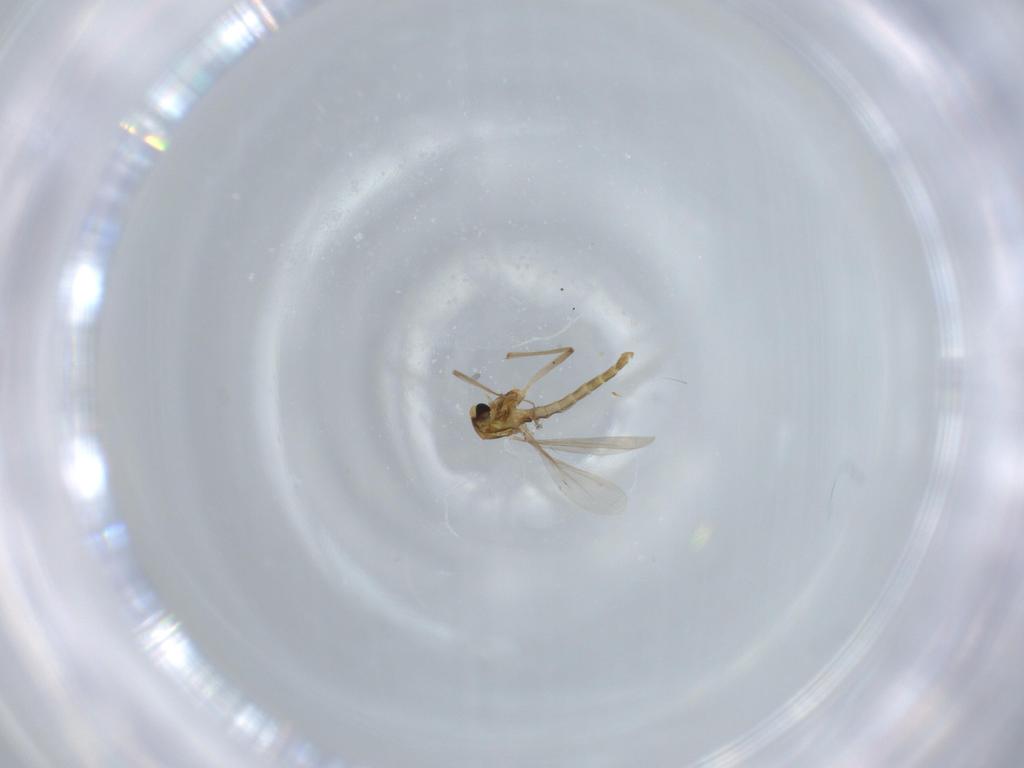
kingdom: Animalia
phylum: Arthropoda
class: Insecta
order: Diptera
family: Chironomidae
